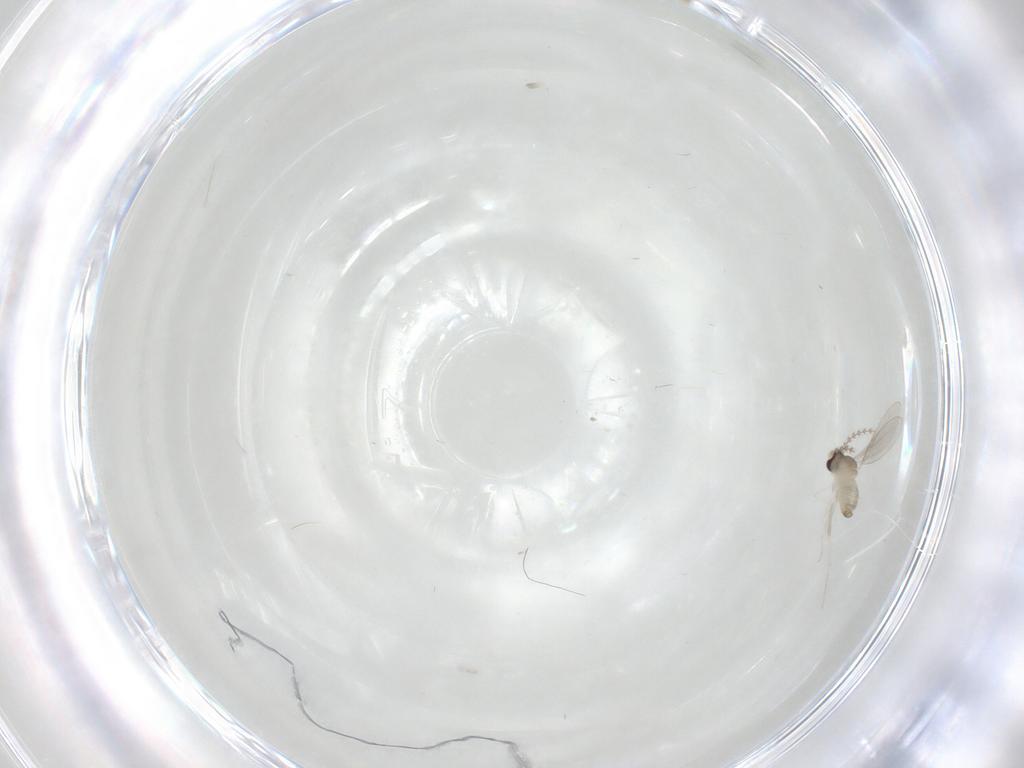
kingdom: Animalia
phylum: Arthropoda
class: Insecta
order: Diptera
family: Cecidomyiidae
